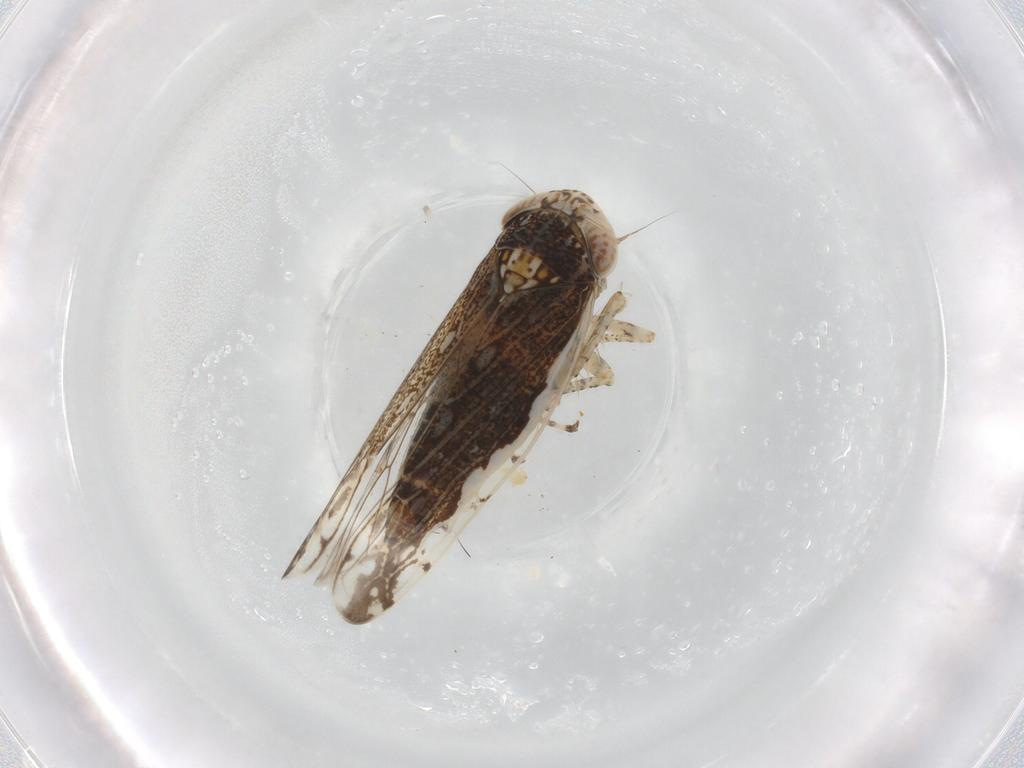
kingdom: Animalia
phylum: Arthropoda
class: Insecta
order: Hemiptera
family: Cicadellidae
